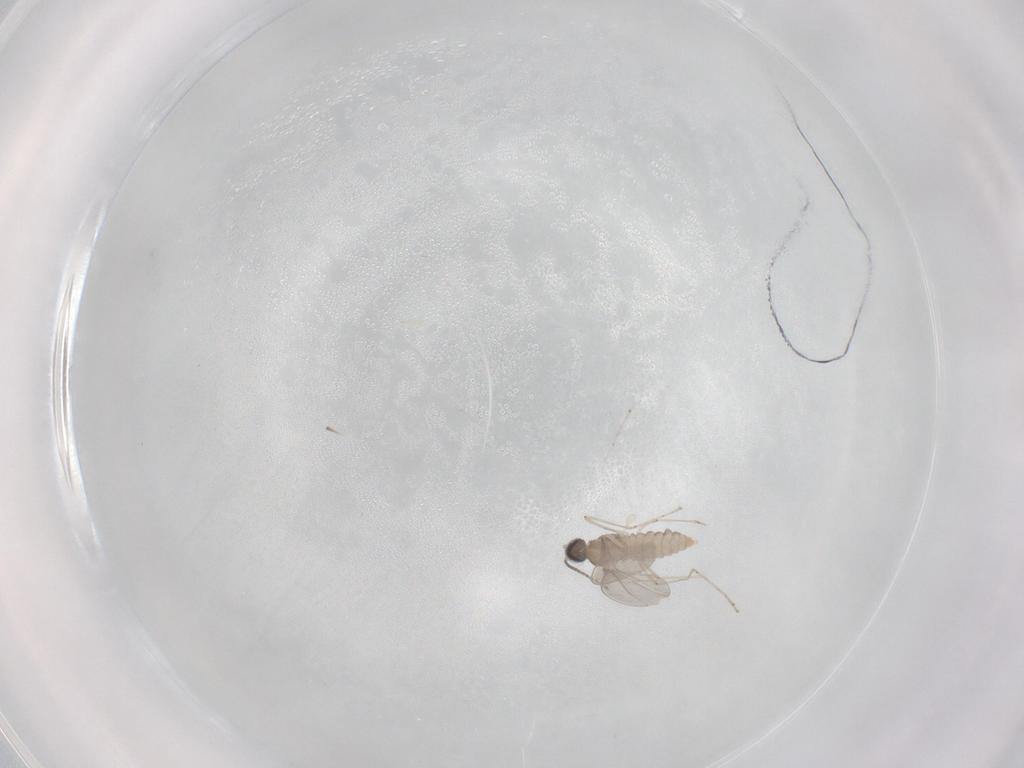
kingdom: Animalia
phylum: Arthropoda
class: Insecta
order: Diptera
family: Cecidomyiidae
